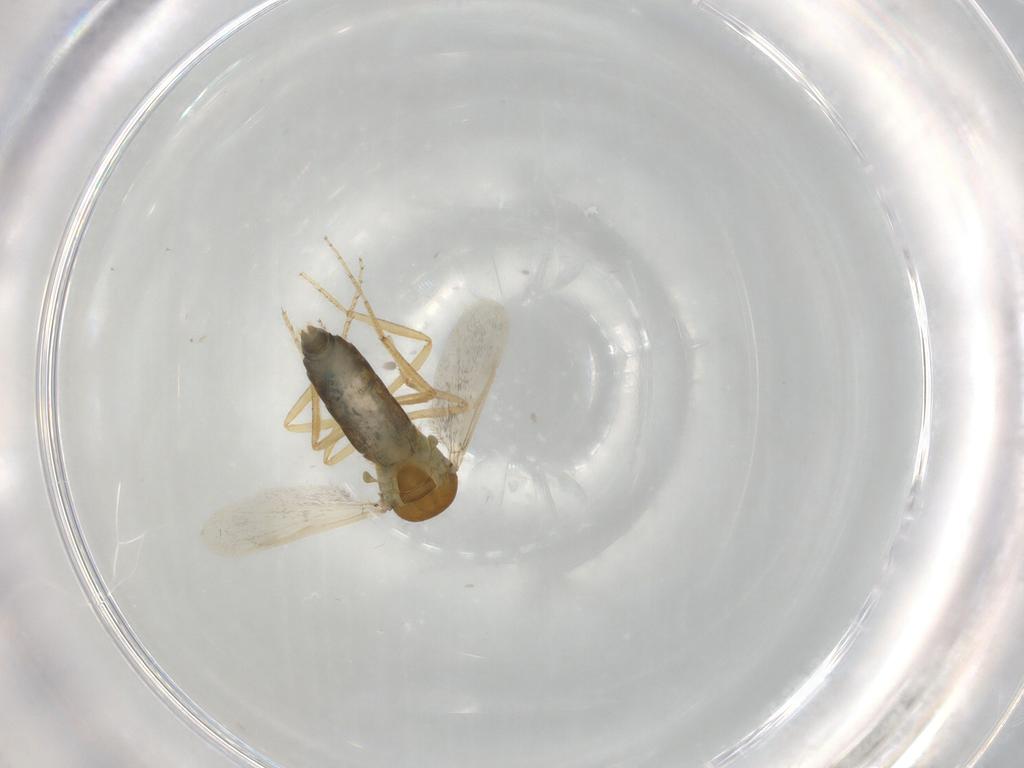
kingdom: Animalia
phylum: Arthropoda
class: Insecta
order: Diptera
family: Ceratopogonidae
